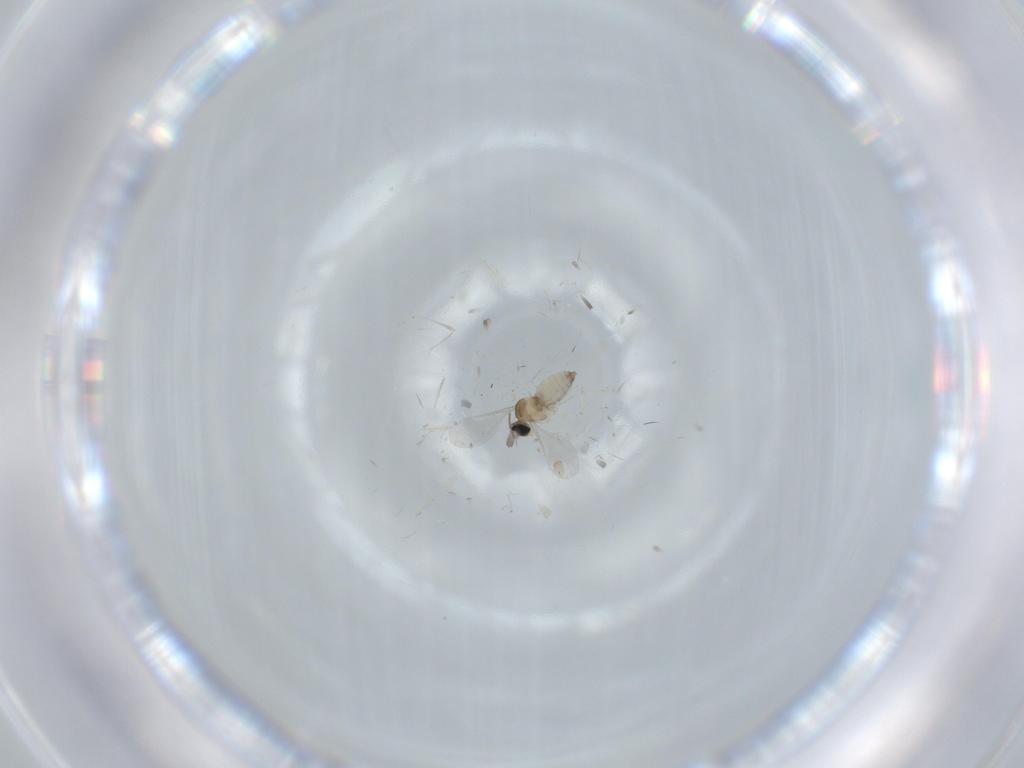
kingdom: Animalia
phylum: Arthropoda
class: Insecta
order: Diptera
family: Cecidomyiidae
